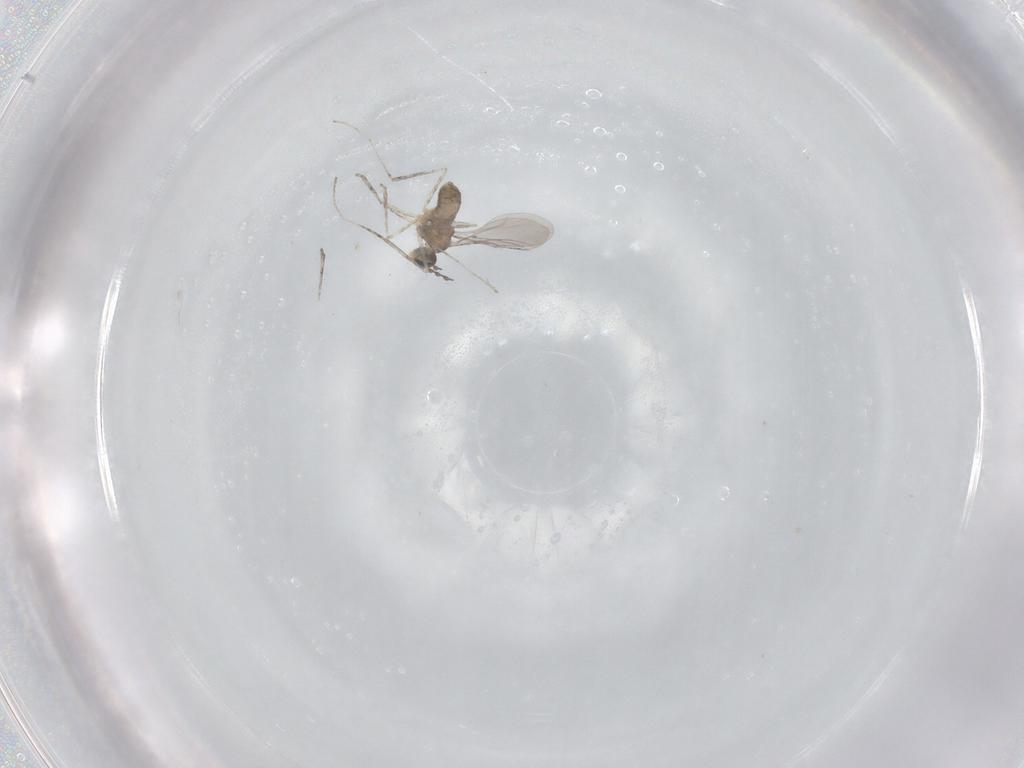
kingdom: Animalia
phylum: Arthropoda
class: Insecta
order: Diptera
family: Cecidomyiidae
